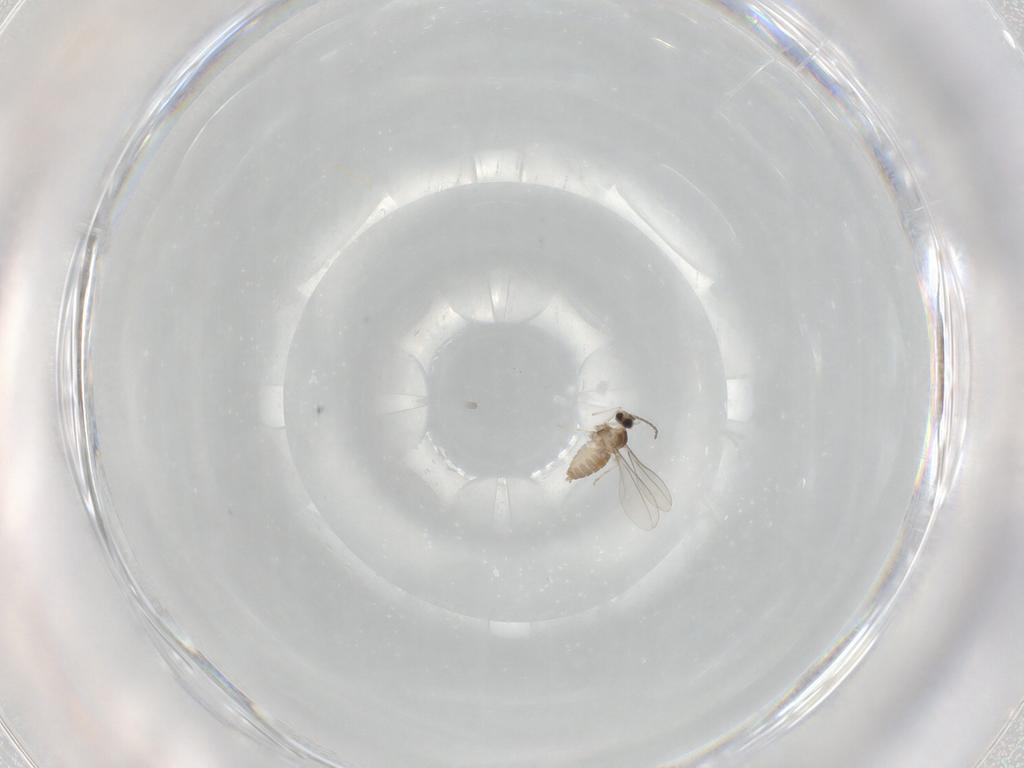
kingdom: Animalia
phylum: Arthropoda
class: Insecta
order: Diptera
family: Cecidomyiidae
